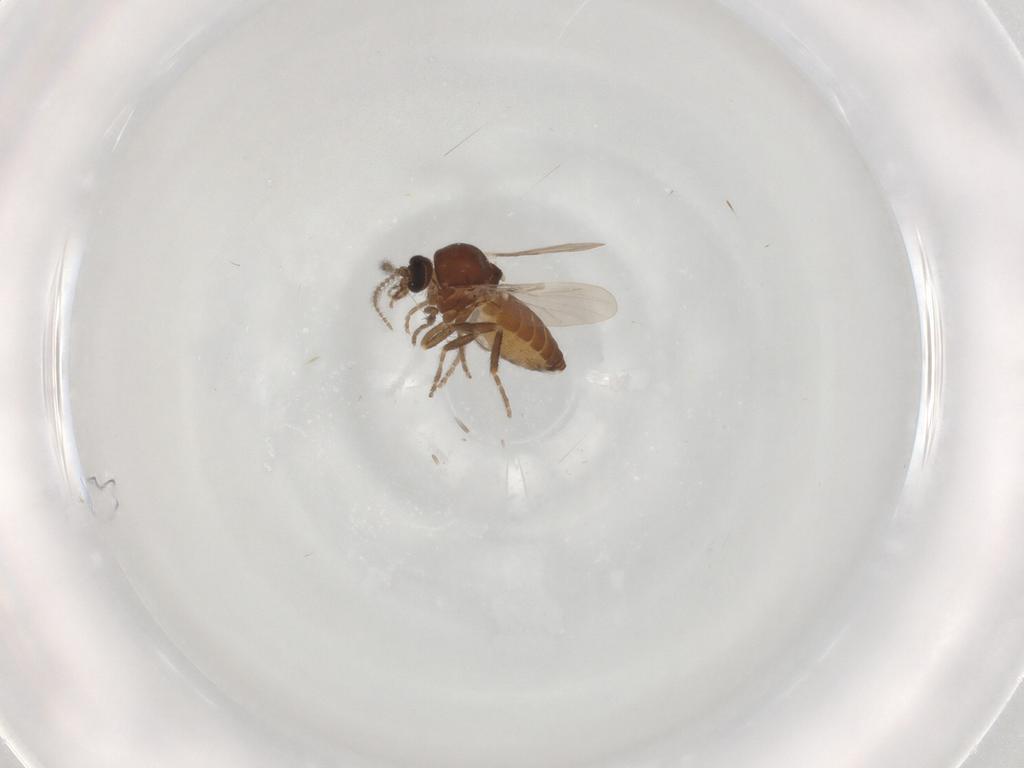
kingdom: Animalia
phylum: Arthropoda
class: Insecta
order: Diptera
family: Ceratopogonidae
